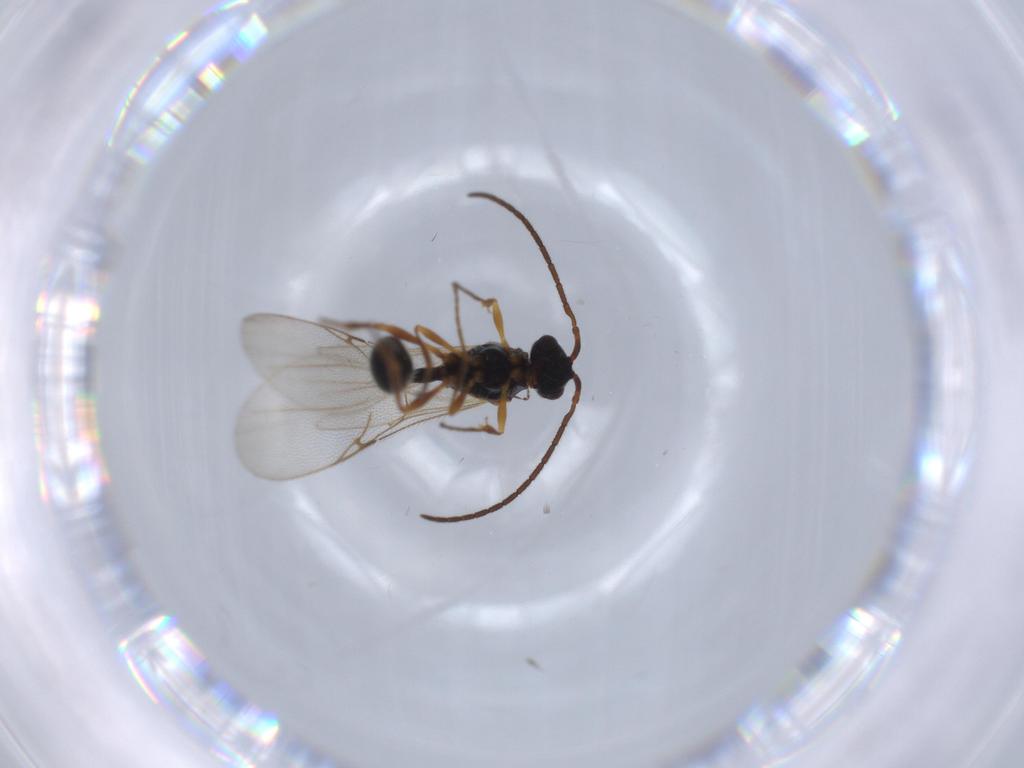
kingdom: Animalia
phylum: Arthropoda
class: Insecta
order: Hymenoptera
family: Diapriidae
